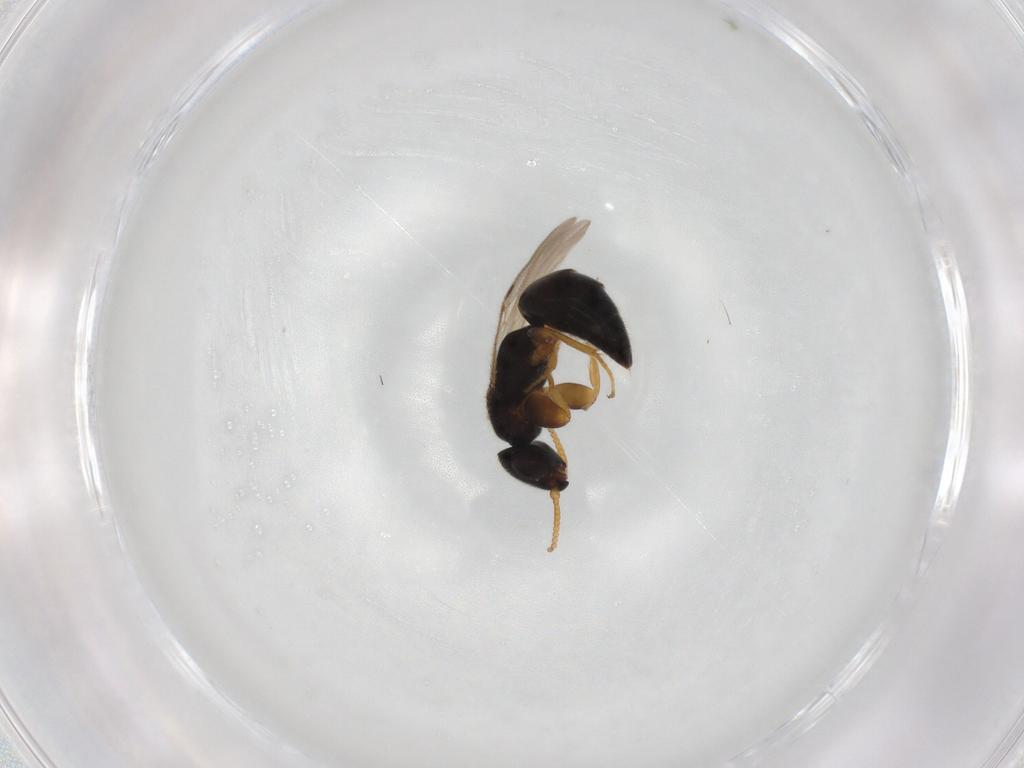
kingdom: Animalia
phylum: Arthropoda
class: Insecta
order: Hymenoptera
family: Bethylidae
